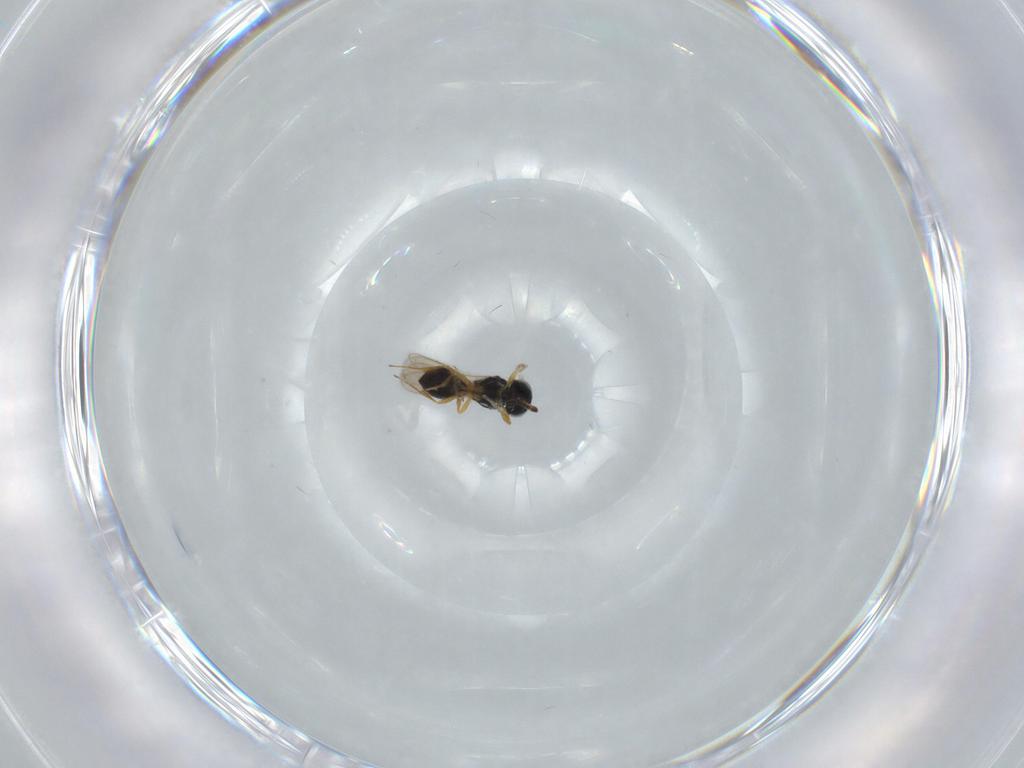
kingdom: Animalia
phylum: Arthropoda
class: Insecta
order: Hymenoptera
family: Scelionidae
